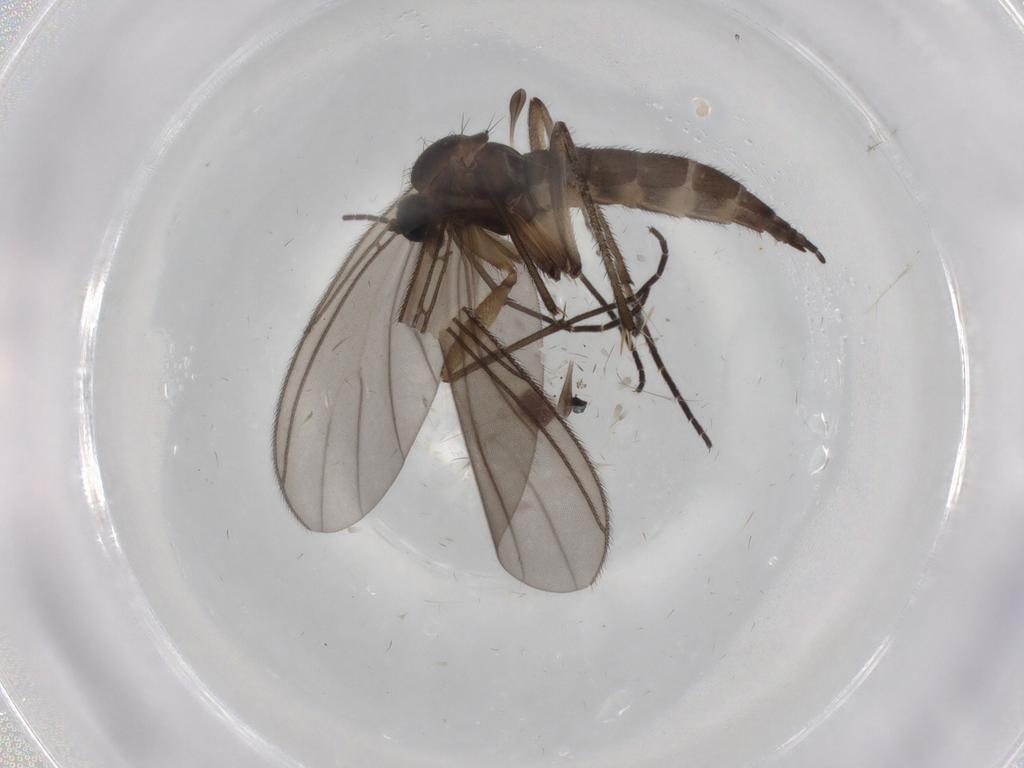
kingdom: Animalia
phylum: Arthropoda
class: Insecta
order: Diptera
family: Sciaridae
